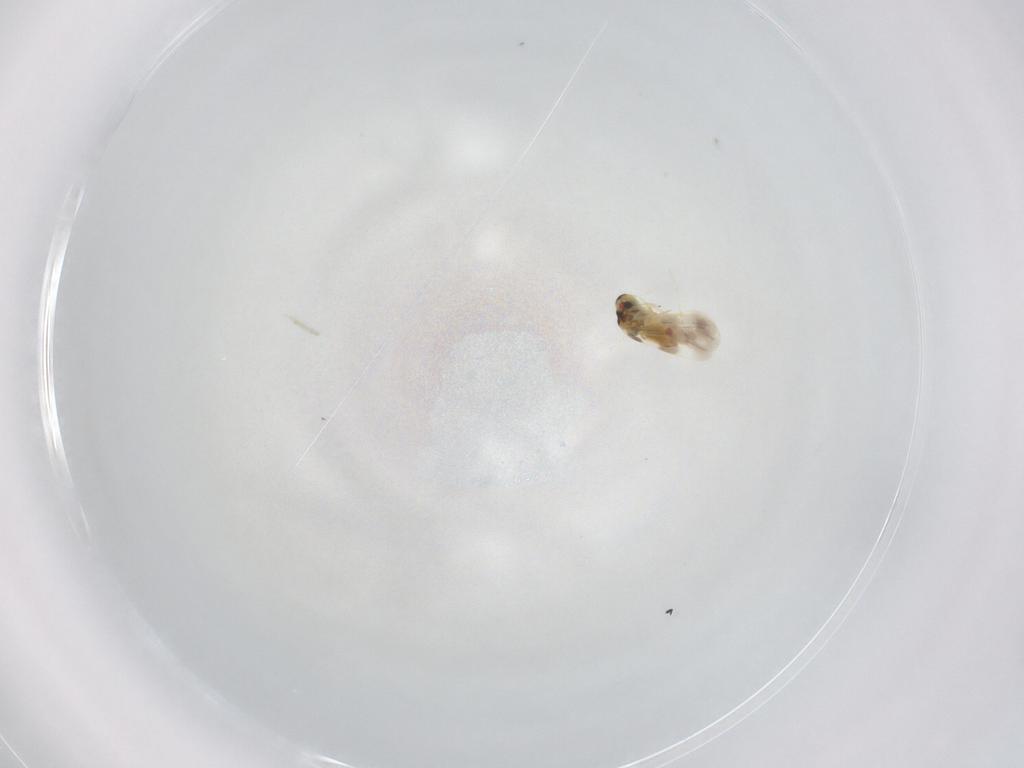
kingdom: Animalia
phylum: Arthropoda
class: Insecta
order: Hemiptera
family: Aleyrodidae
